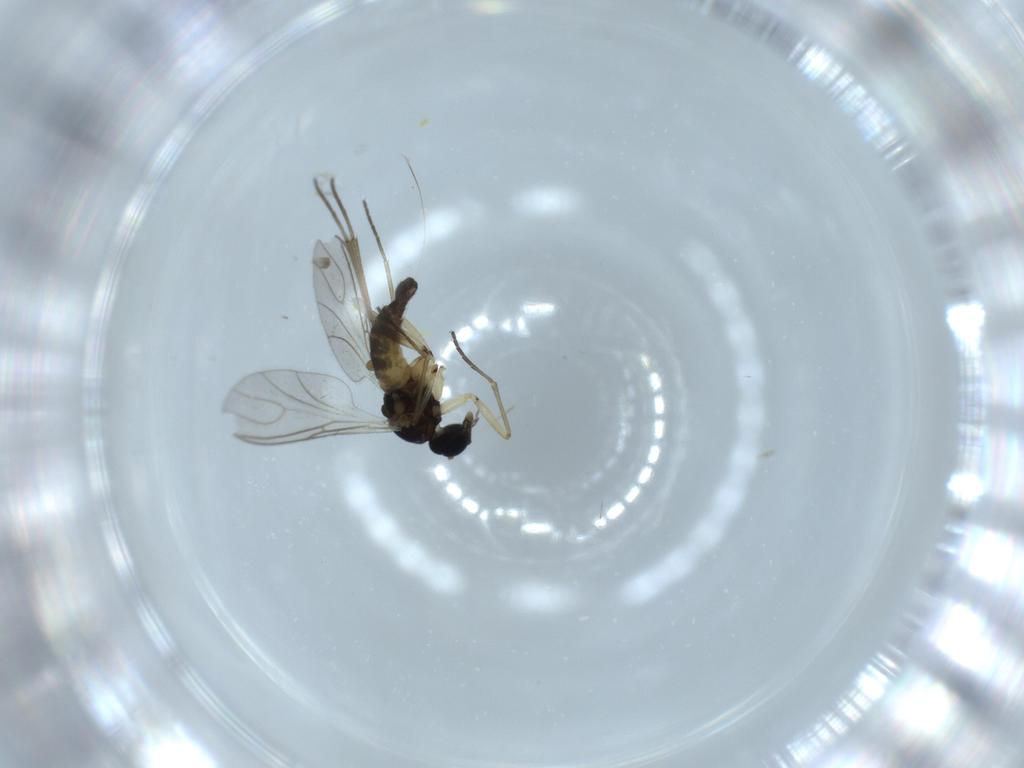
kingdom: Animalia
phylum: Arthropoda
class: Insecta
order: Diptera
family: Sciaridae
